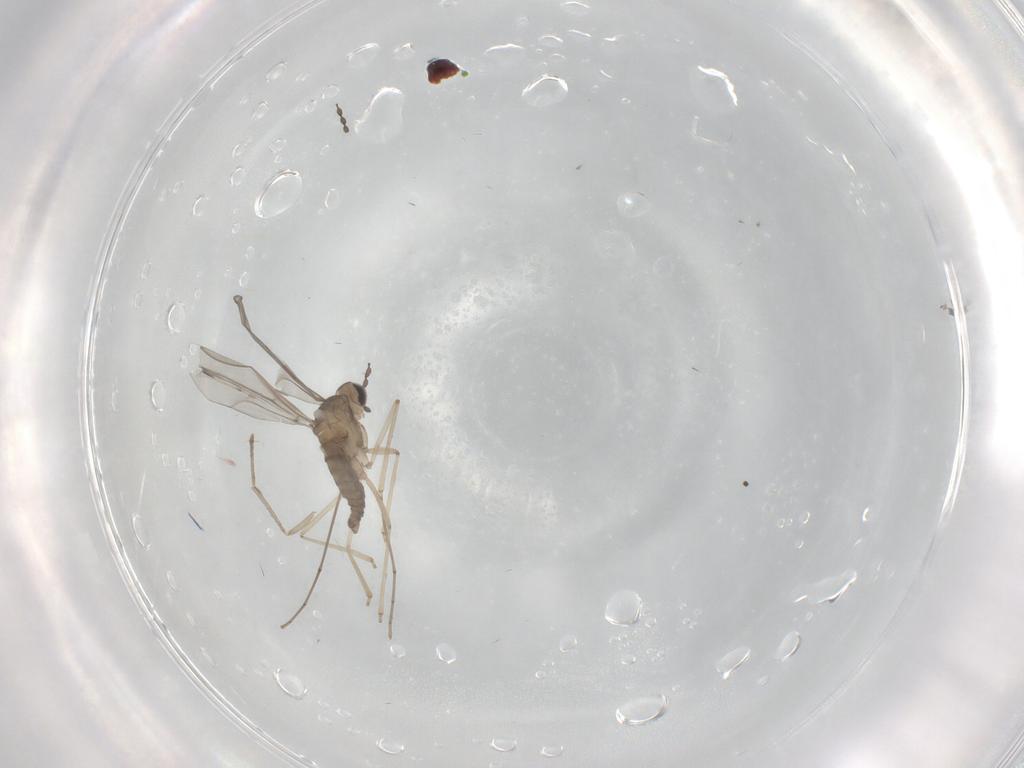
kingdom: Animalia
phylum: Arthropoda
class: Insecta
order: Diptera
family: Cecidomyiidae
